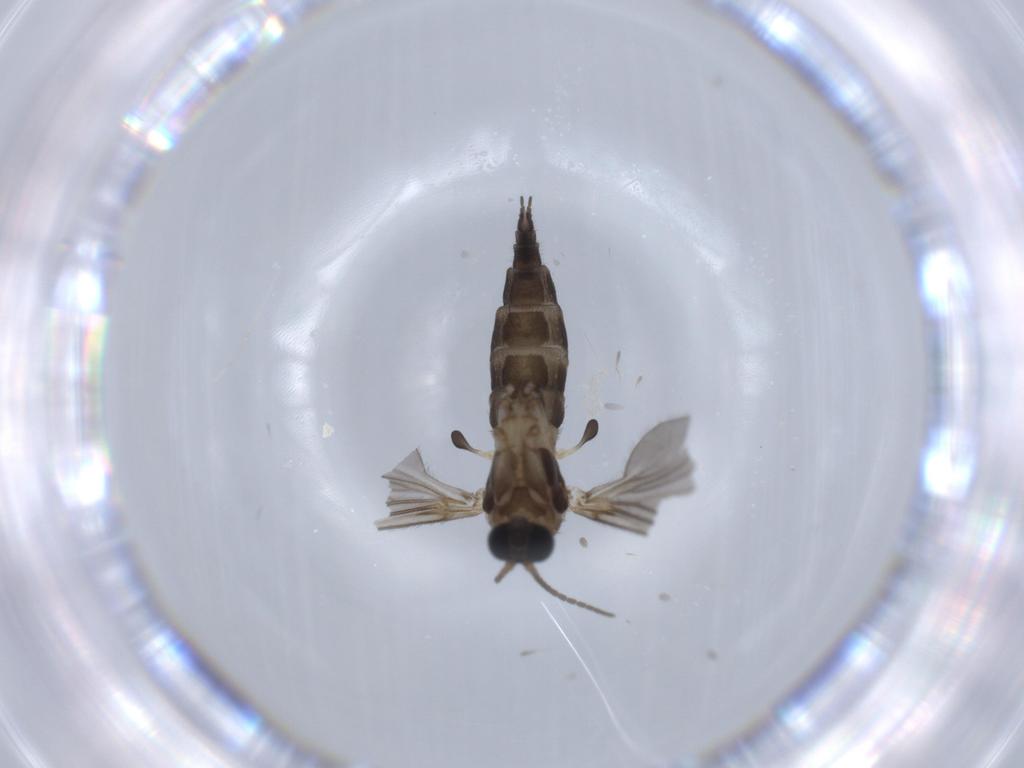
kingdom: Animalia
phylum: Arthropoda
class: Insecta
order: Diptera
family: Sciaridae
